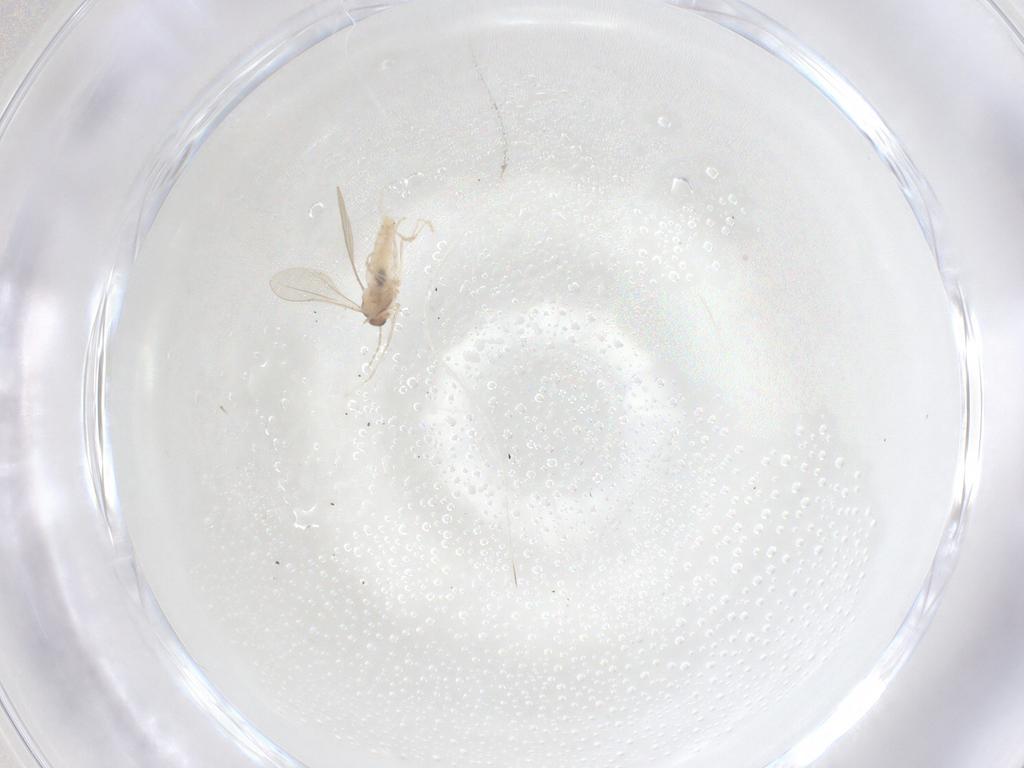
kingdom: Animalia
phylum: Arthropoda
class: Insecta
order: Diptera
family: Cecidomyiidae
